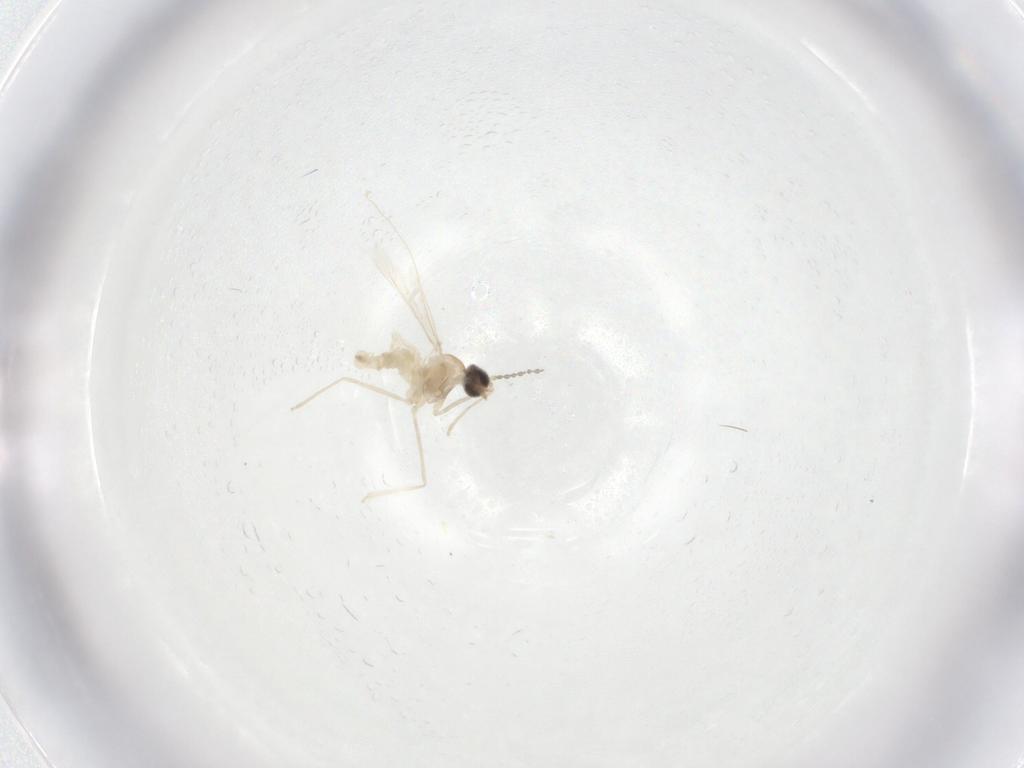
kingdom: Animalia
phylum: Arthropoda
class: Insecta
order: Diptera
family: Cecidomyiidae
